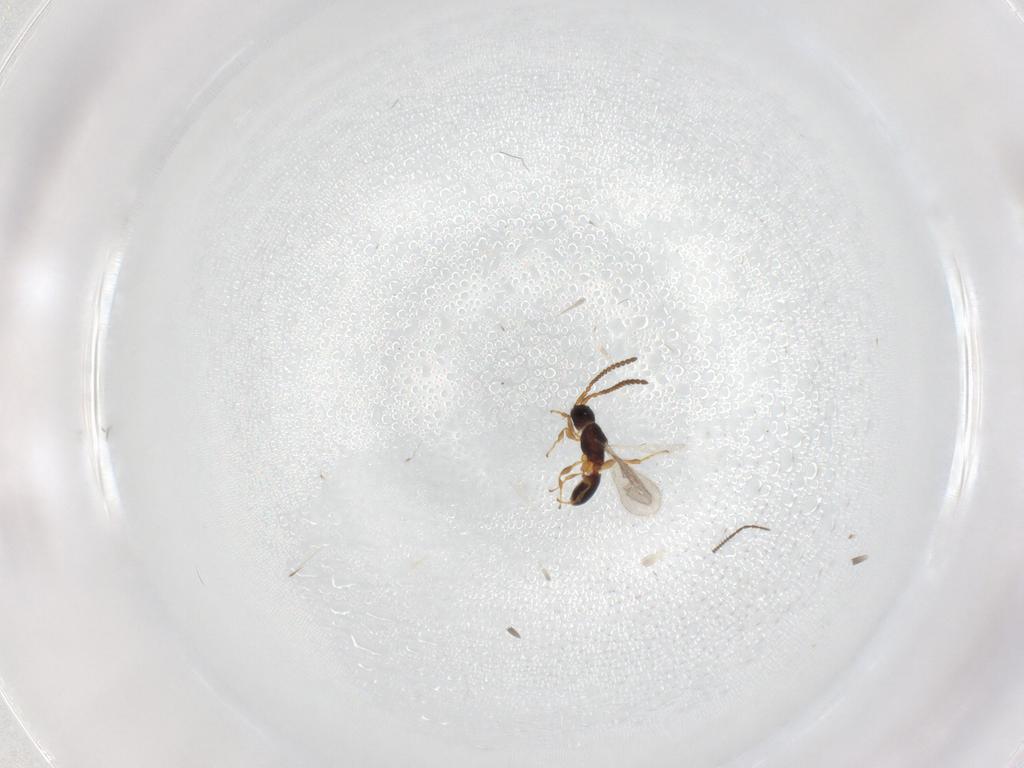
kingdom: Animalia
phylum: Arthropoda
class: Insecta
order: Hymenoptera
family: Diapriidae
